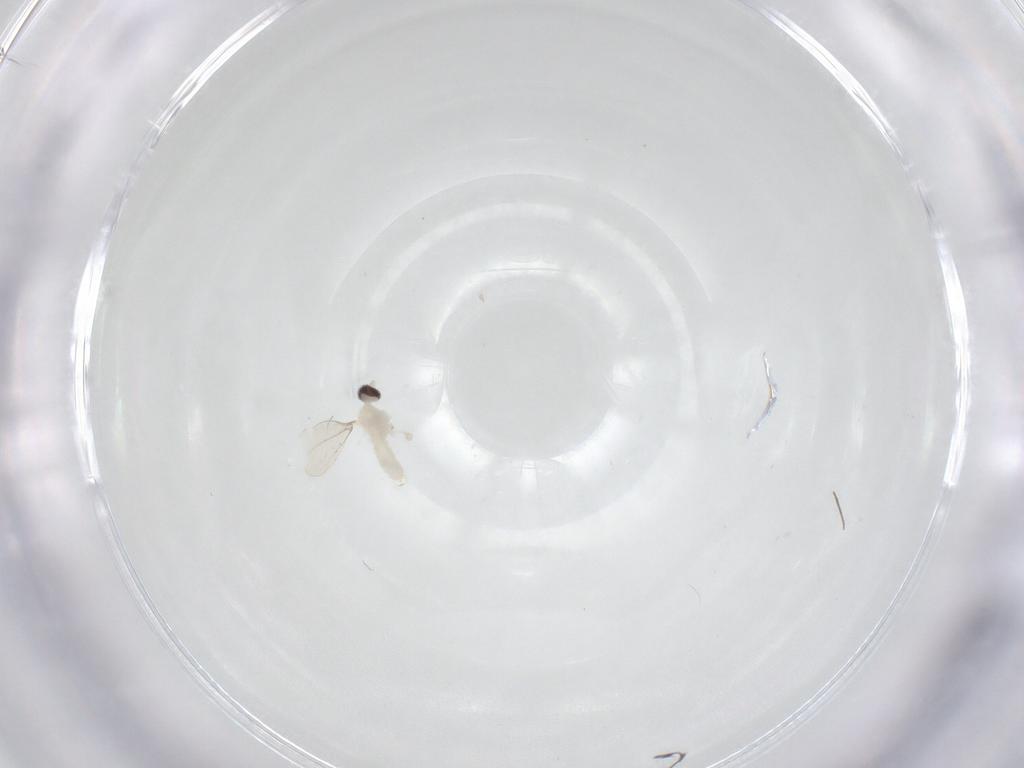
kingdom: Animalia
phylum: Arthropoda
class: Insecta
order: Diptera
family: Chironomidae
